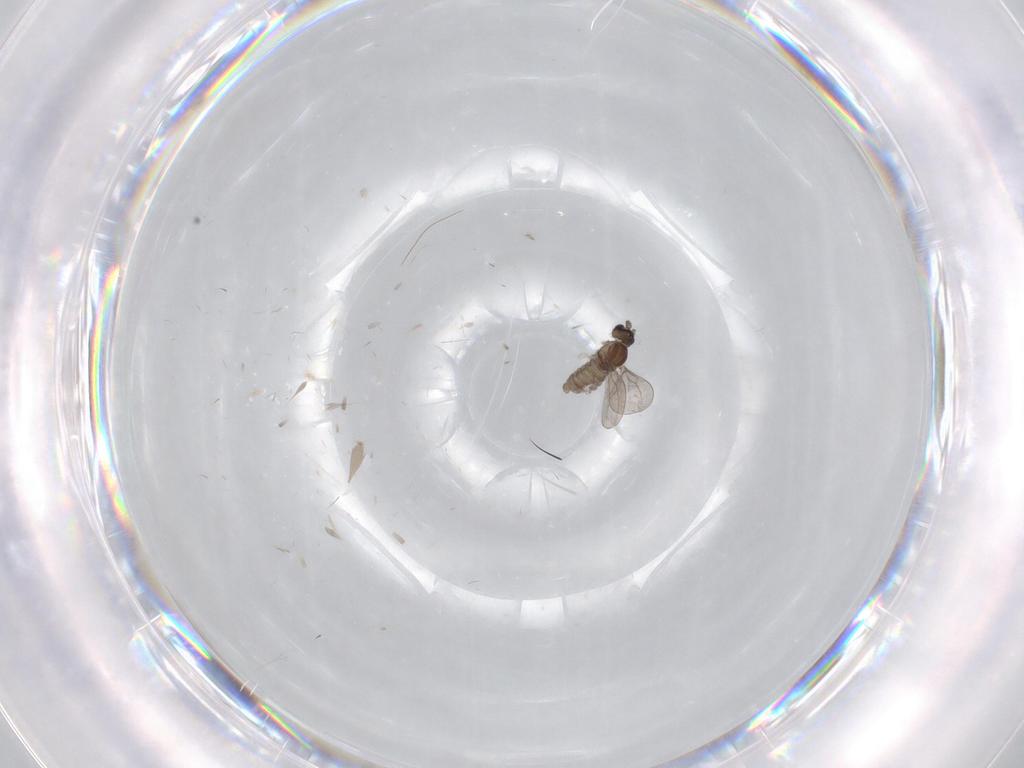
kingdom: Animalia
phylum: Arthropoda
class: Insecta
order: Diptera
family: Cecidomyiidae
